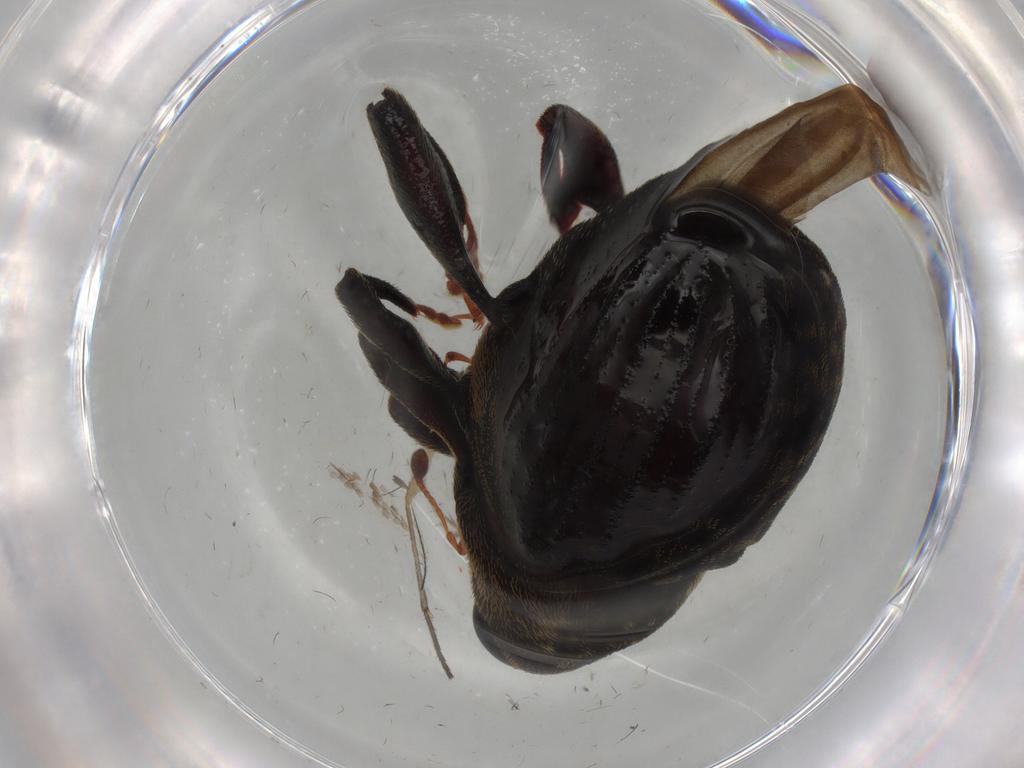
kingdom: Animalia
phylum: Arthropoda
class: Insecta
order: Coleoptera
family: Curculionidae
